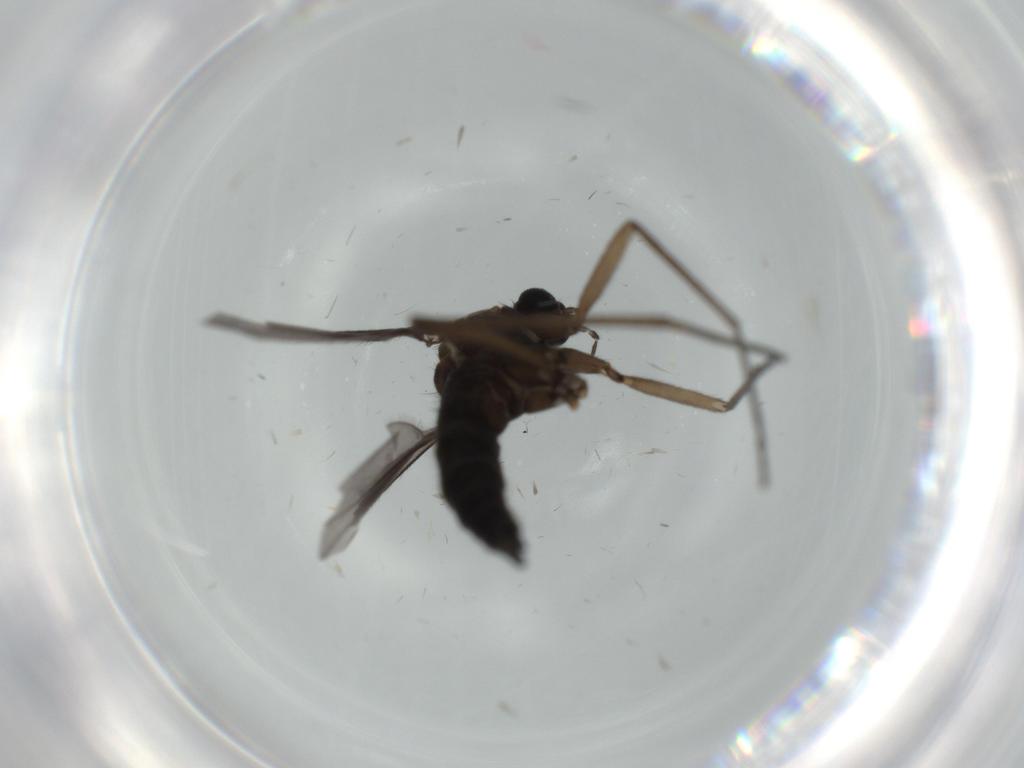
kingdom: Animalia
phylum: Arthropoda
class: Insecta
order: Diptera
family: Sciaridae
